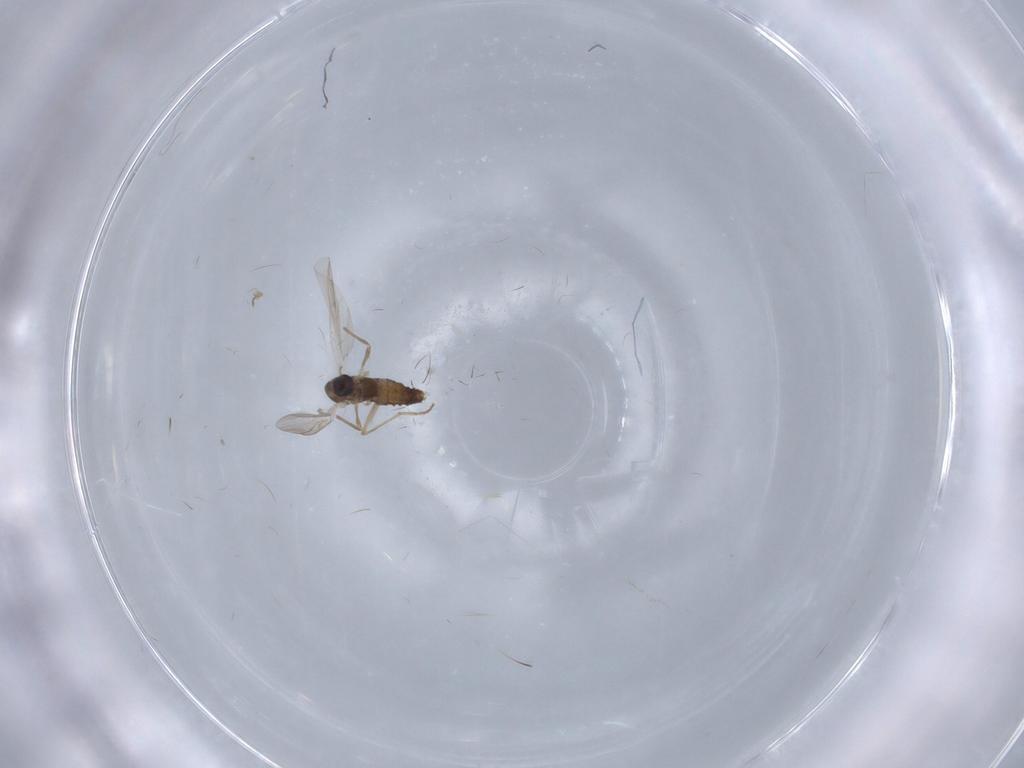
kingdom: Animalia
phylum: Arthropoda
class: Insecta
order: Diptera
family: Chironomidae
